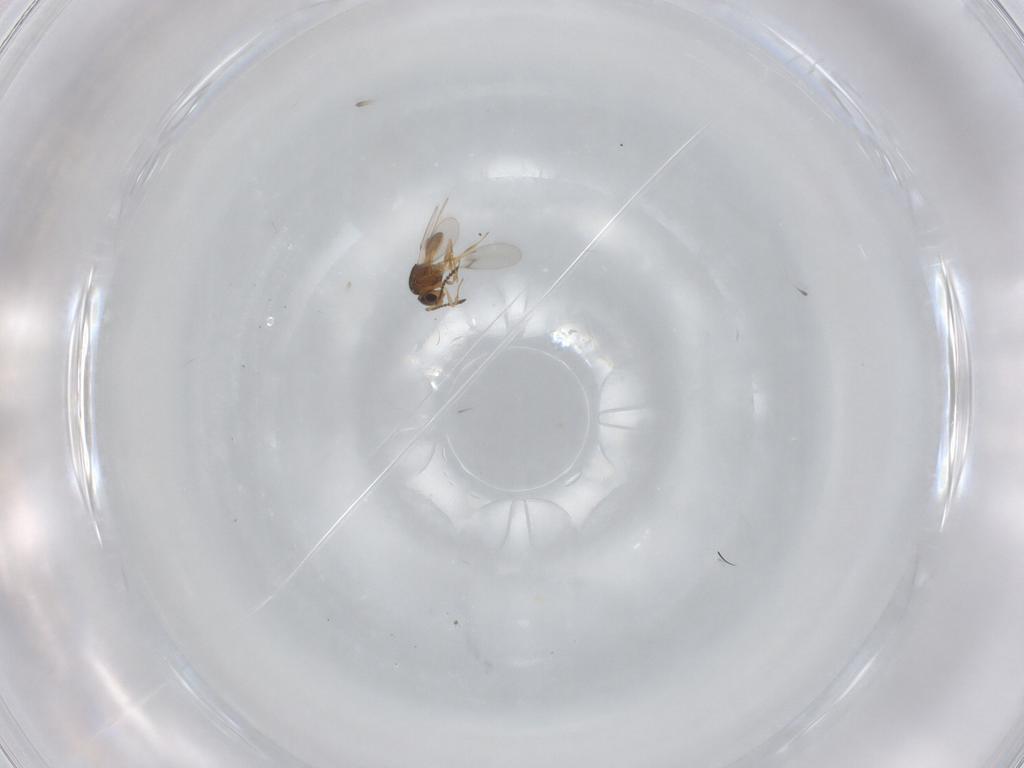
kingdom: Animalia
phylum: Arthropoda
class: Insecta
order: Hymenoptera
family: Scelionidae
